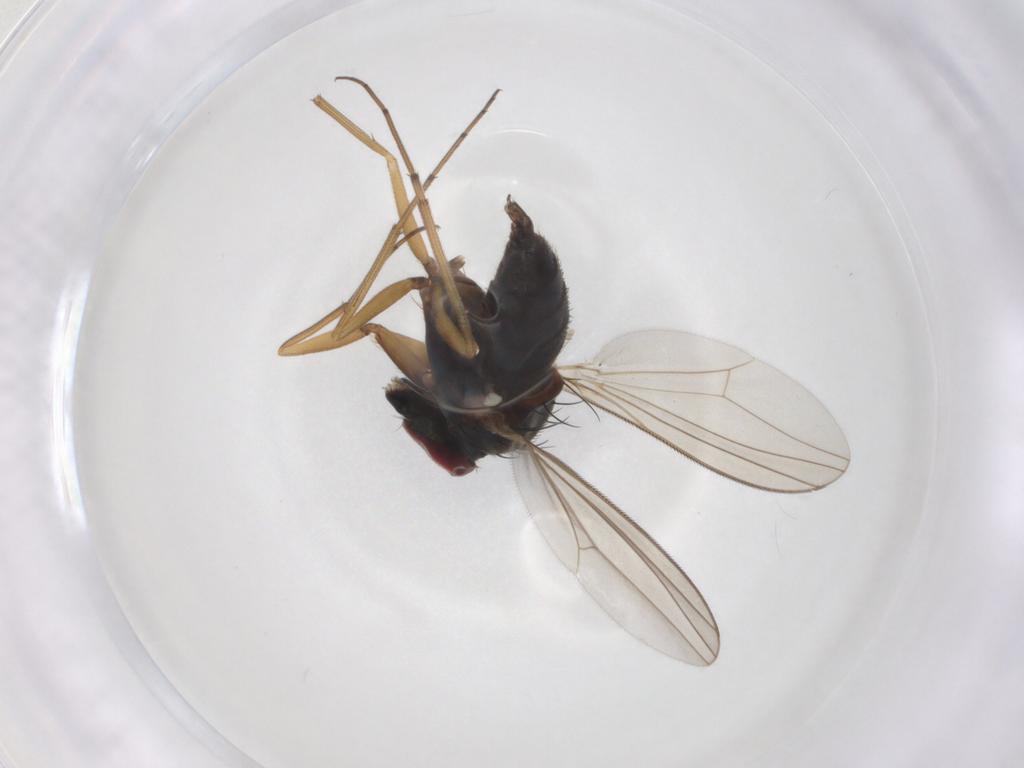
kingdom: Animalia
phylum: Arthropoda
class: Insecta
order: Diptera
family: Dolichopodidae
